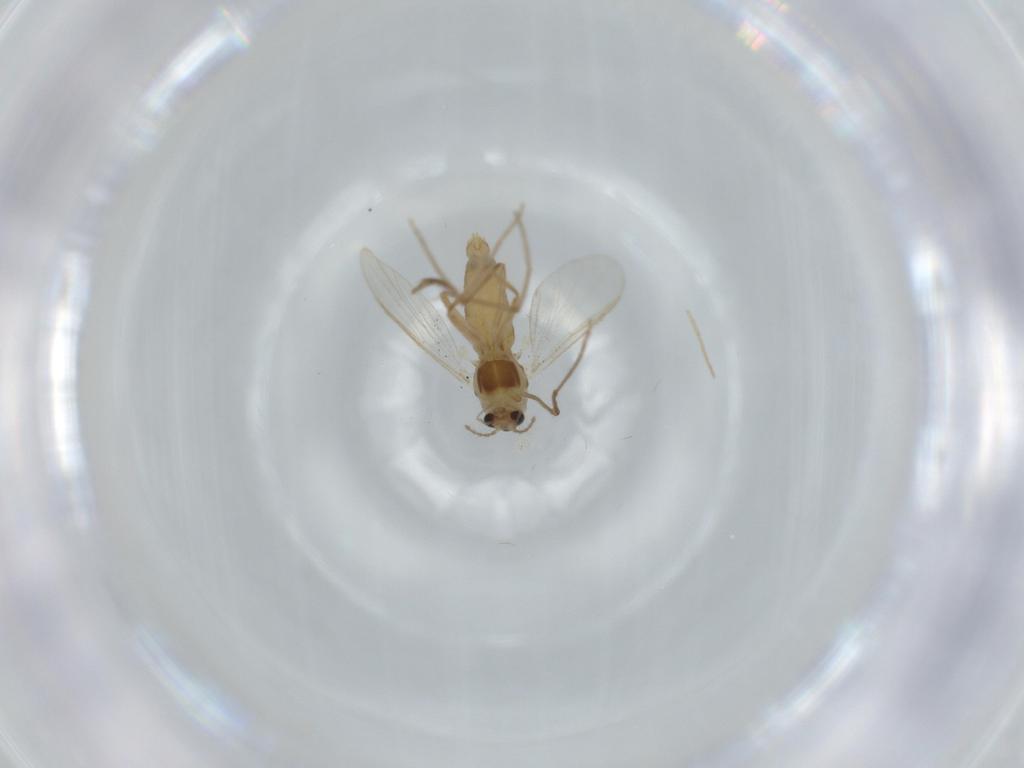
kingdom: Animalia
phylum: Arthropoda
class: Insecta
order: Diptera
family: Chironomidae
